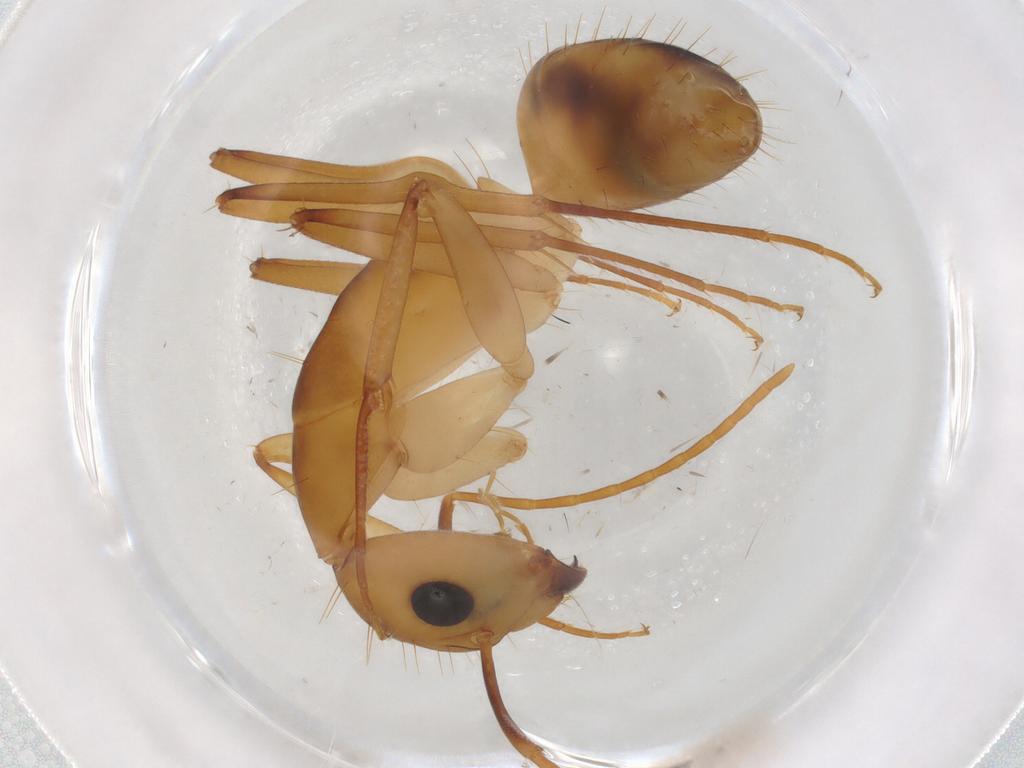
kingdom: Animalia
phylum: Arthropoda
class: Insecta
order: Hymenoptera
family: Formicidae
